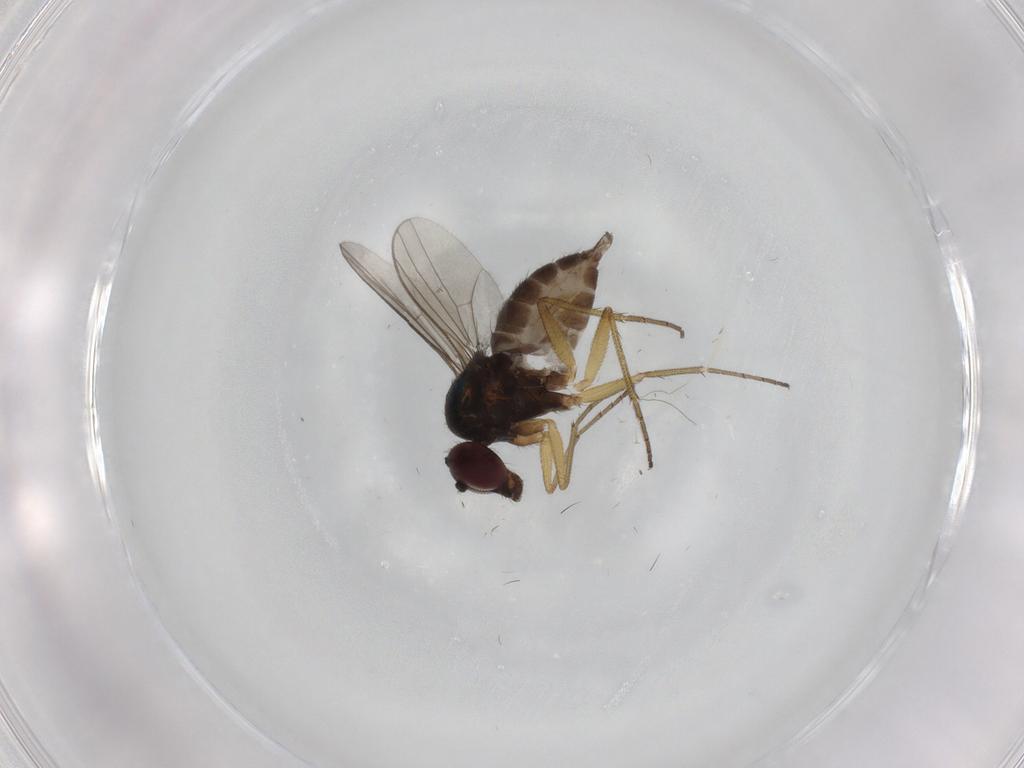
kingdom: Animalia
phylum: Arthropoda
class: Insecta
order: Diptera
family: Dolichopodidae
